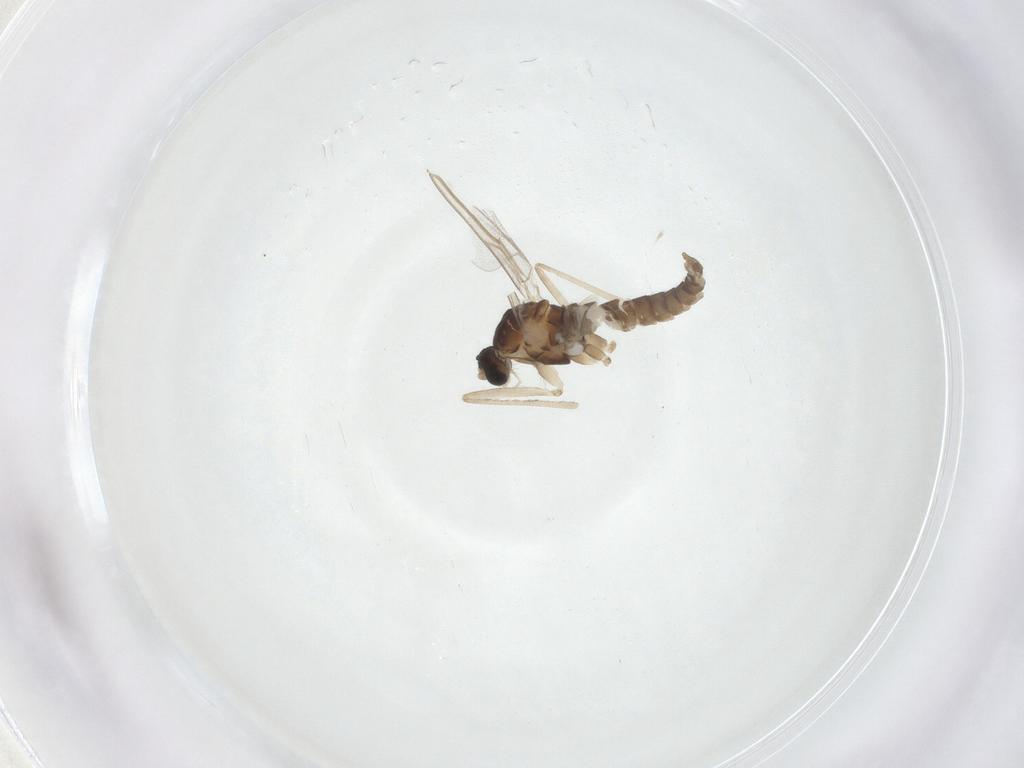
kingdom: Animalia
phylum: Arthropoda
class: Insecta
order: Diptera
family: Cecidomyiidae
